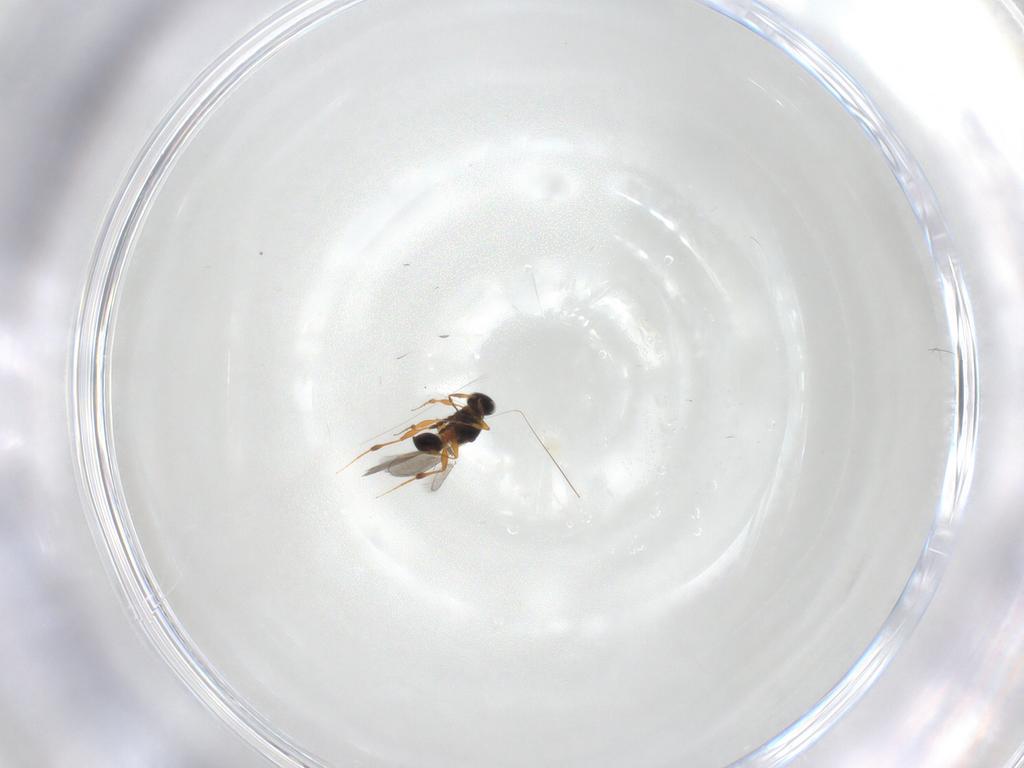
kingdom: Animalia
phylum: Arthropoda
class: Insecta
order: Hymenoptera
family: Platygastridae
